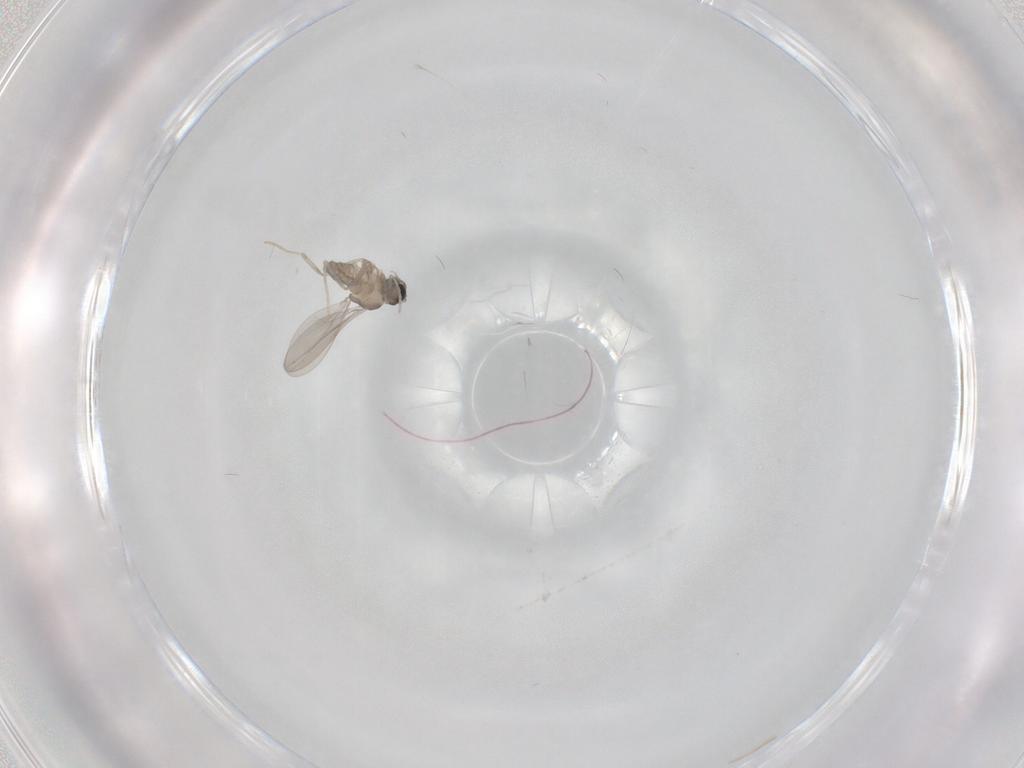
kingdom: Animalia
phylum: Arthropoda
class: Insecta
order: Diptera
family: Cecidomyiidae
